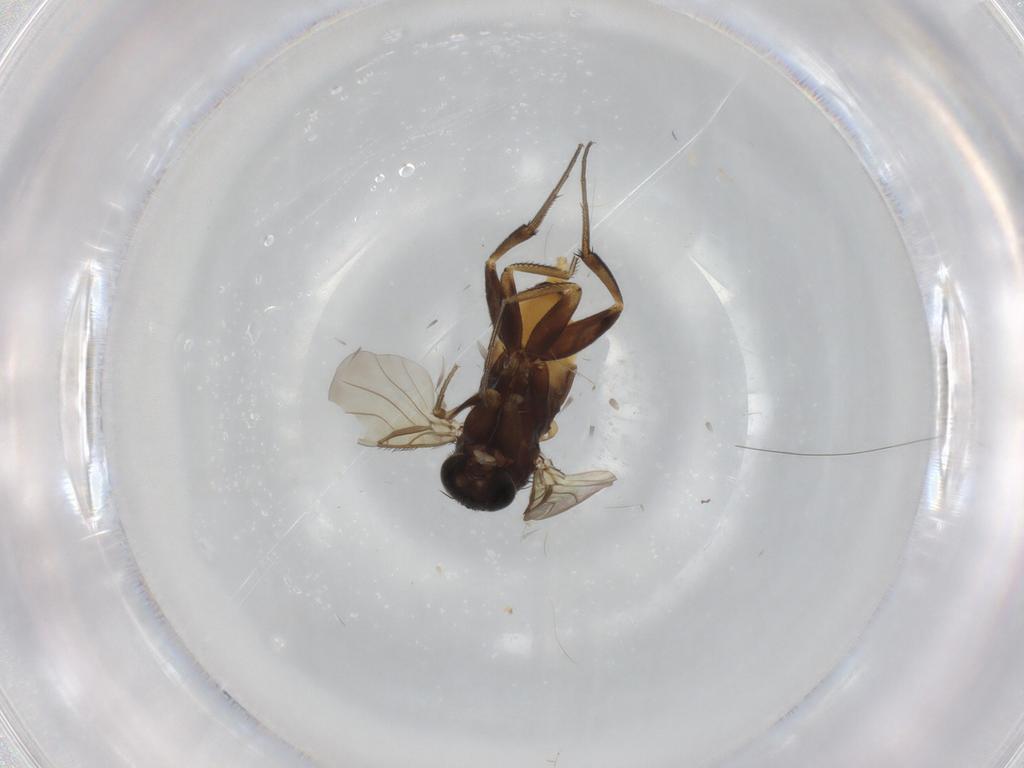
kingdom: Animalia
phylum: Arthropoda
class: Insecta
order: Diptera
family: Phoridae
